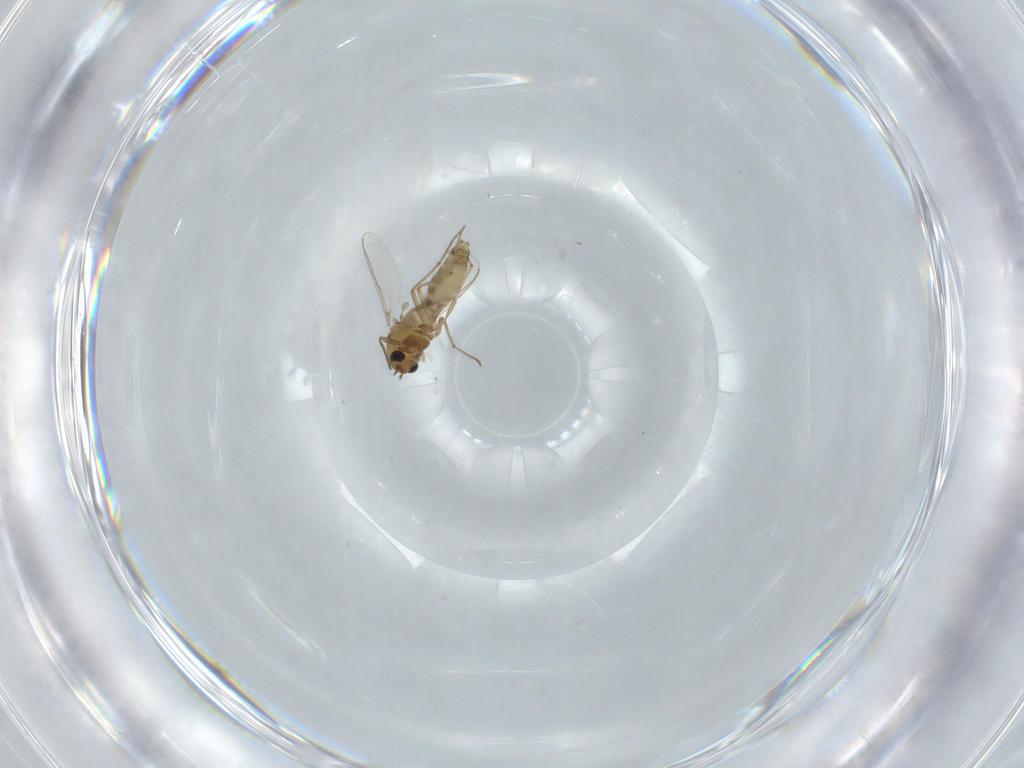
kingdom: Animalia
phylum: Arthropoda
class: Insecta
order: Diptera
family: Chironomidae
